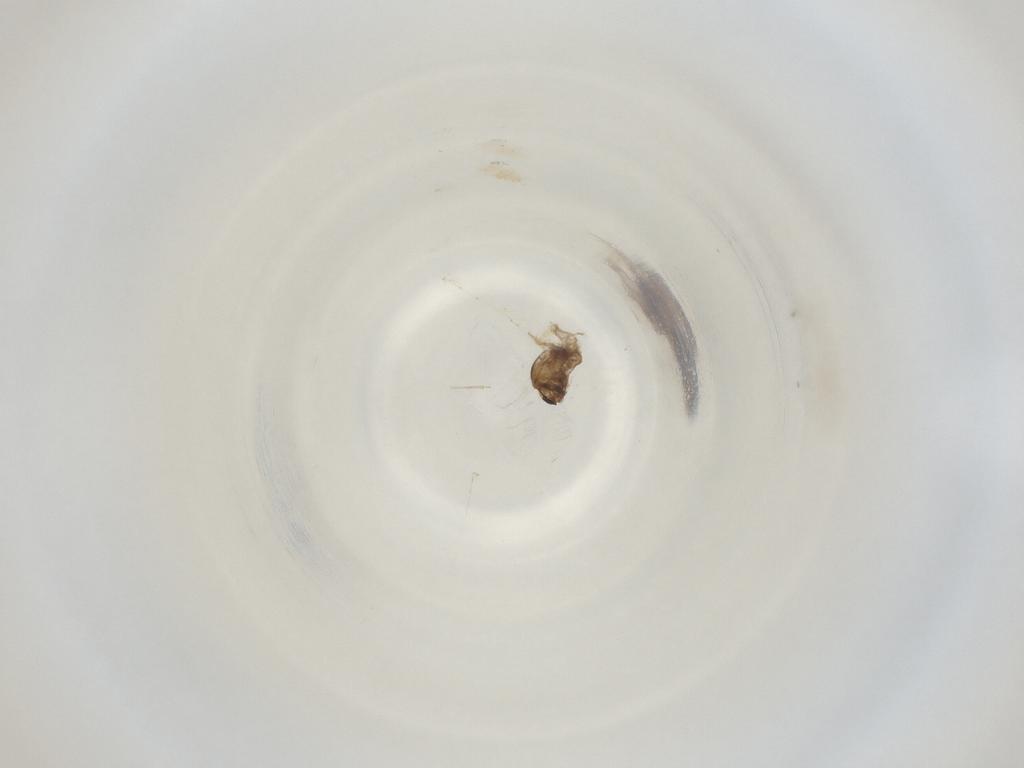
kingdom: Animalia
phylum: Arthropoda
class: Insecta
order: Diptera
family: Cecidomyiidae
